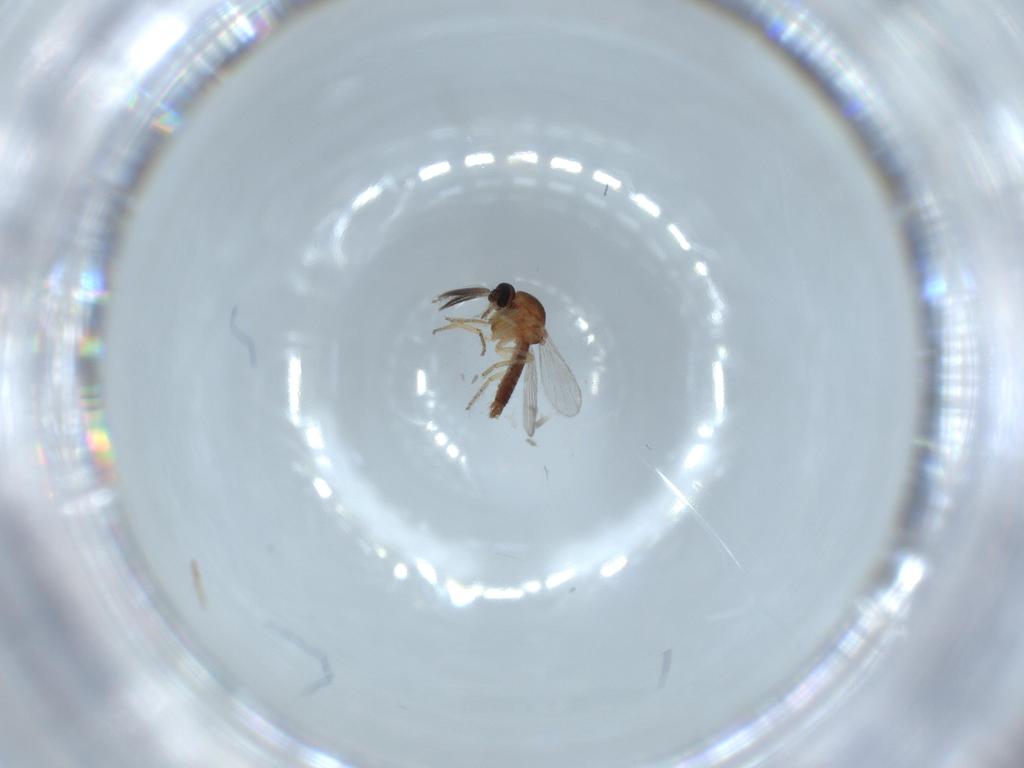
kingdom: Animalia
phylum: Arthropoda
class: Insecta
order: Diptera
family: Ceratopogonidae
